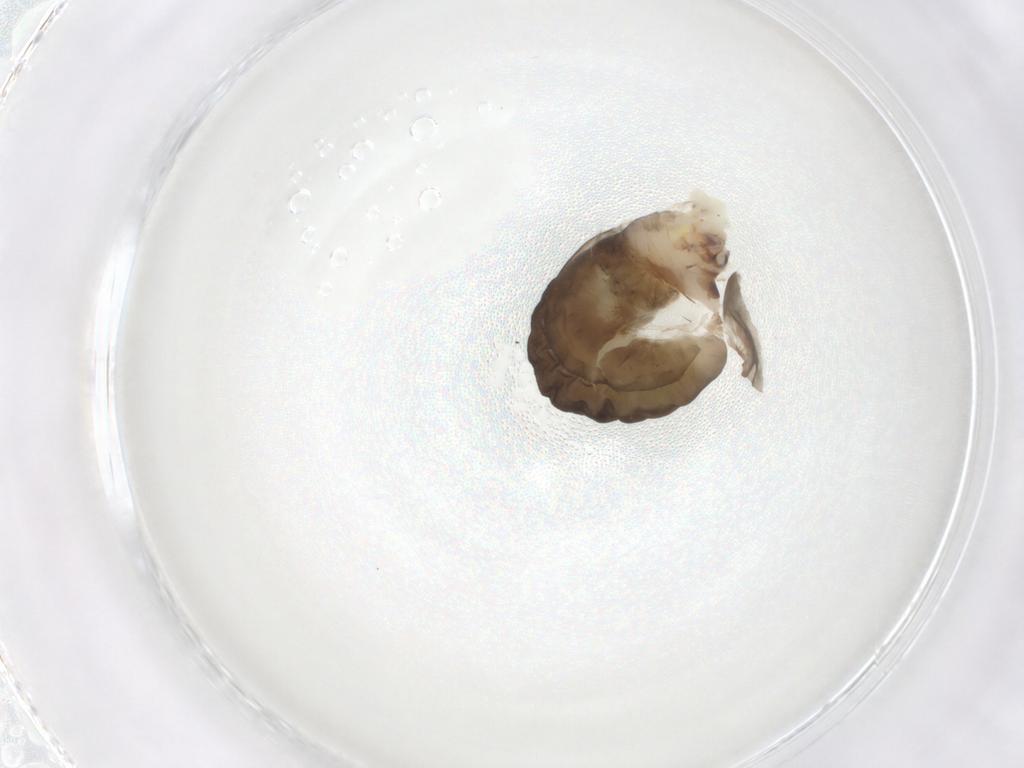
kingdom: Animalia
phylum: Arthropoda
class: Insecta
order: Hymenoptera
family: Dryinidae
